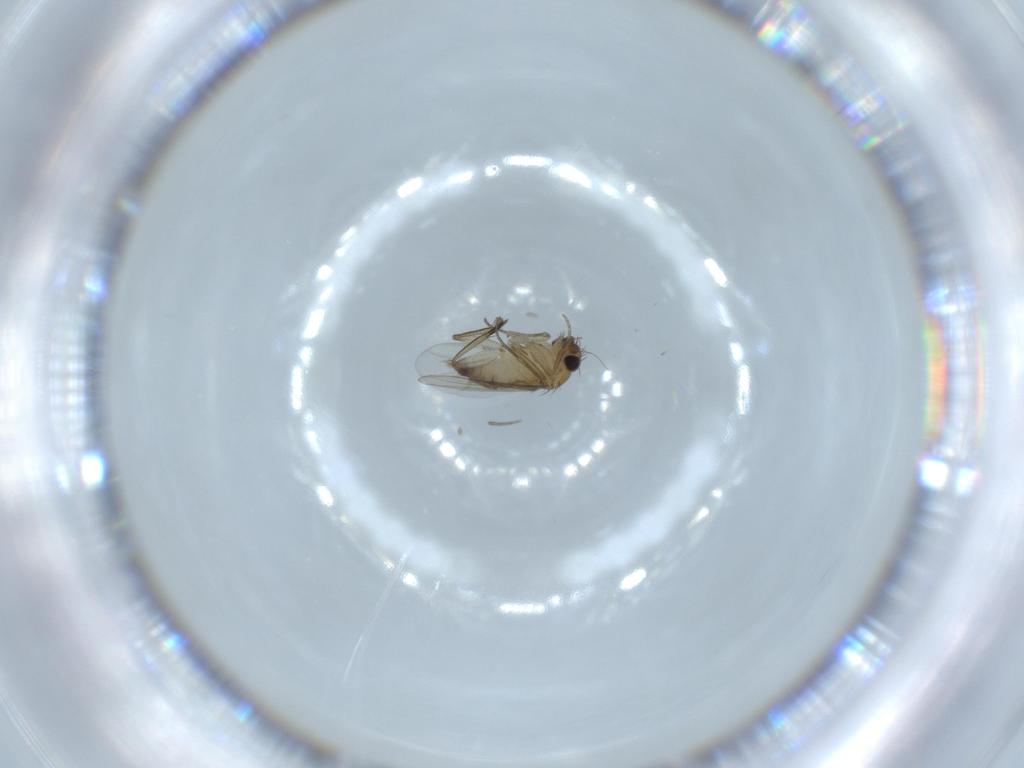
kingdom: Animalia
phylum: Arthropoda
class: Insecta
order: Diptera
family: Phoridae
